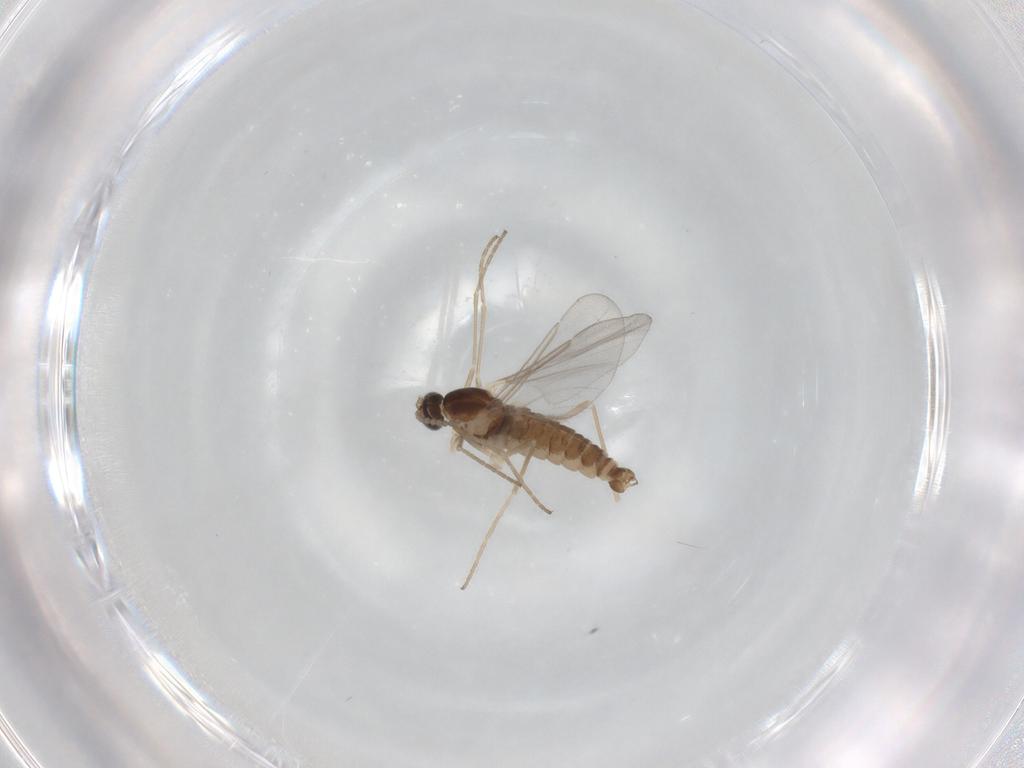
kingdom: Animalia
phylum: Arthropoda
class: Insecta
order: Diptera
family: Cecidomyiidae
